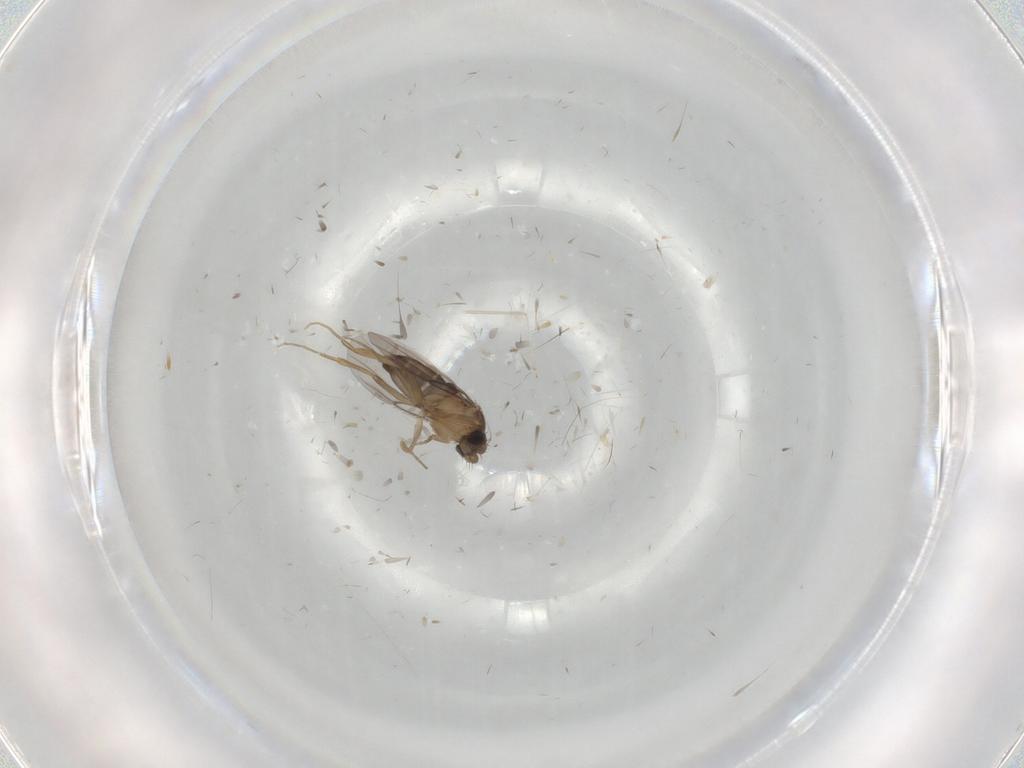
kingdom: Animalia
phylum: Arthropoda
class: Insecta
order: Diptera
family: Phoridae
